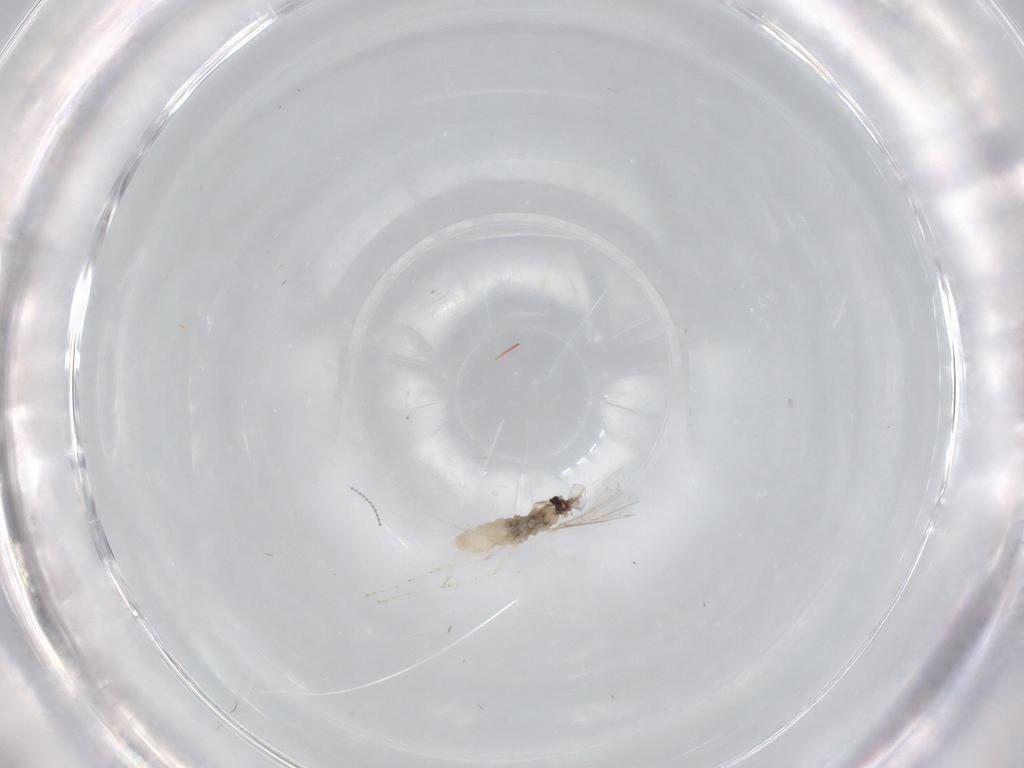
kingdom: Animalia
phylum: Arthropoda
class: Insecta
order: Diptera
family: Cecidomyiidae
